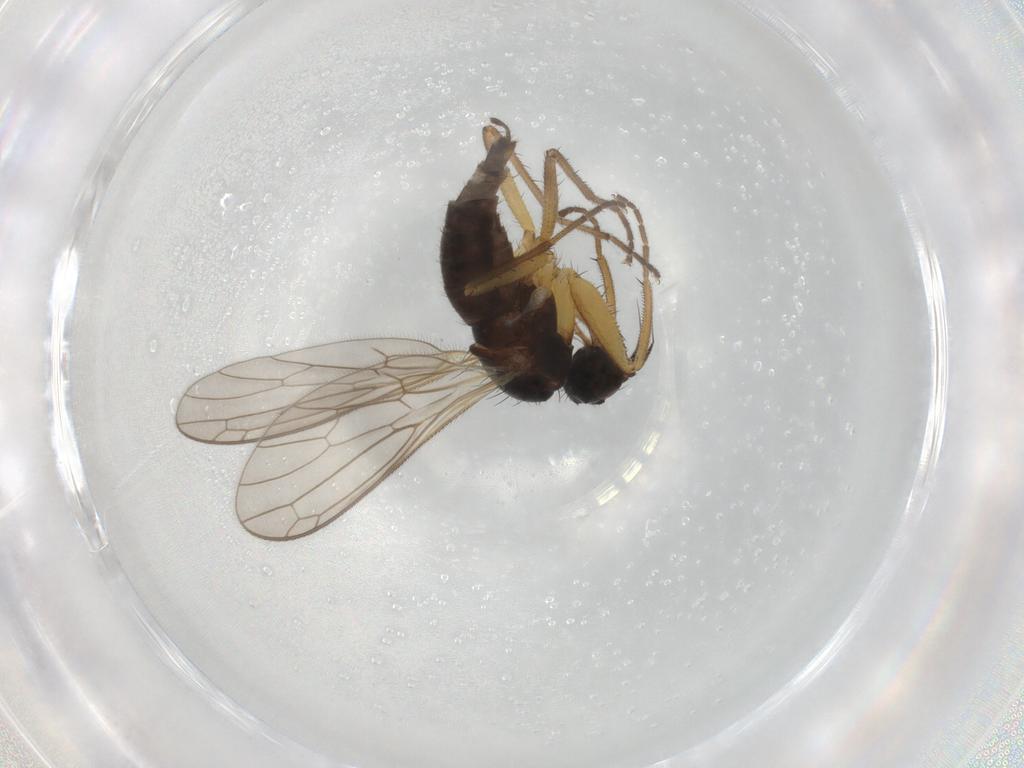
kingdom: Animalia
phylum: Arthropoda
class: Insecta
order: Diptera
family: Empididae
